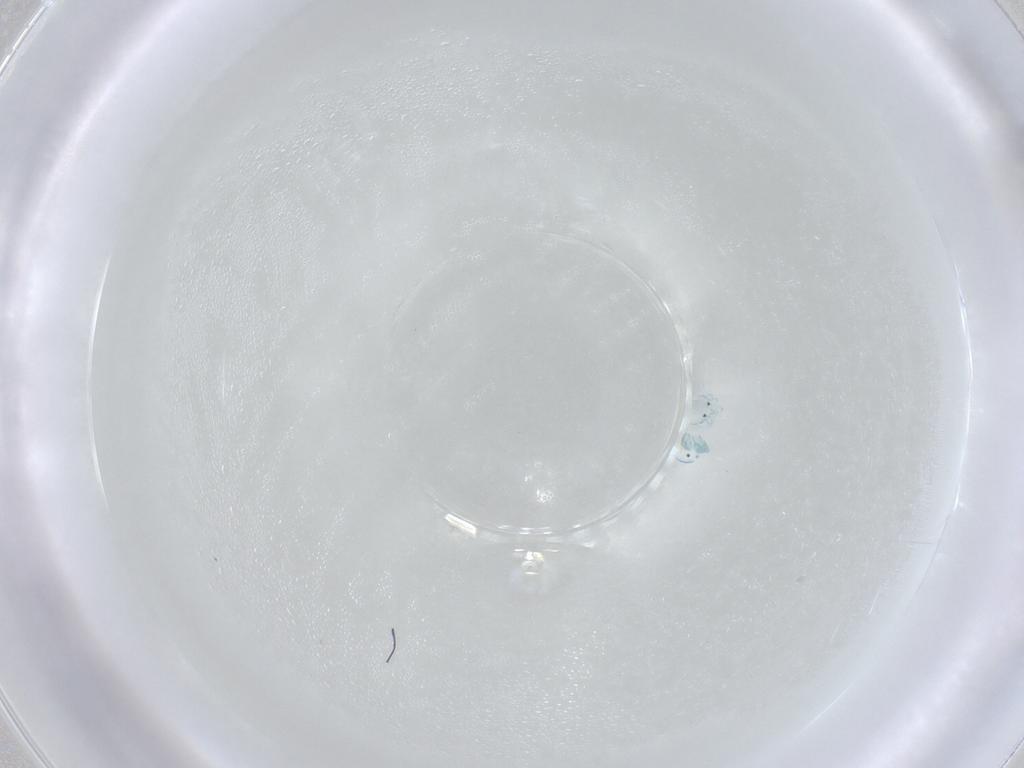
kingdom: Animalia
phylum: Arthropoda
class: Arachnida
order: Trombidiformes
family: Arrenuridae
